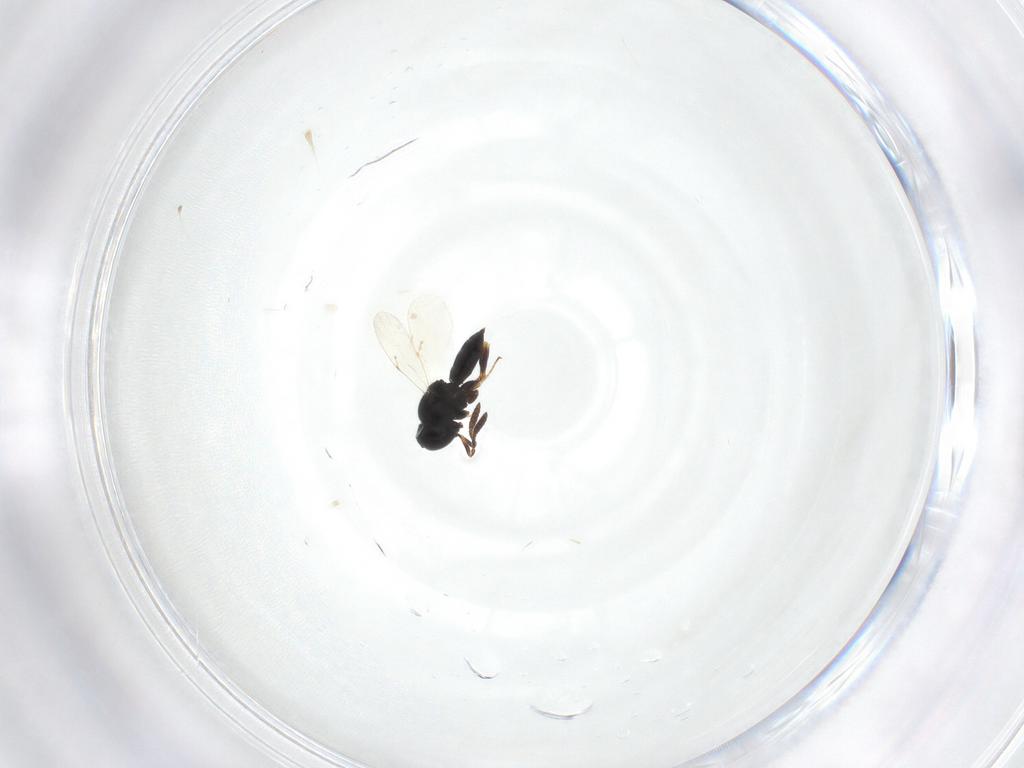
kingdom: Animalia
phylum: Arthropoda
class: Insecta
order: Hymenoptera
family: Scelionidae
